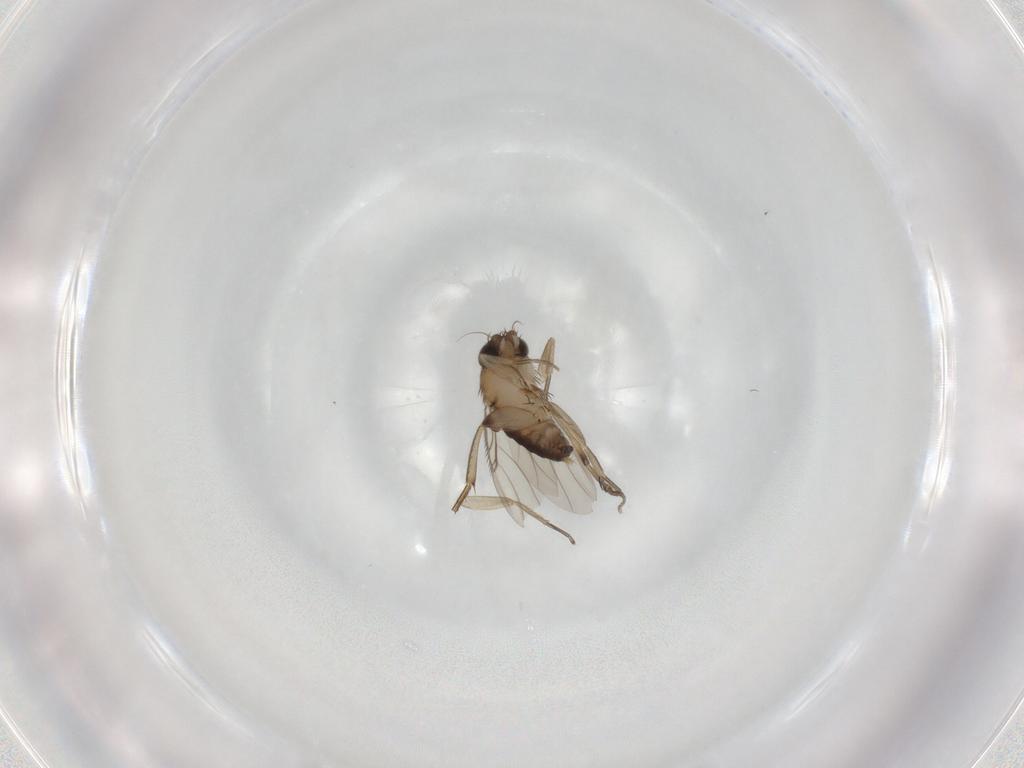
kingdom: Animalia
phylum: Arthropoda
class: Insecta
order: Diptera
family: Phoridae
